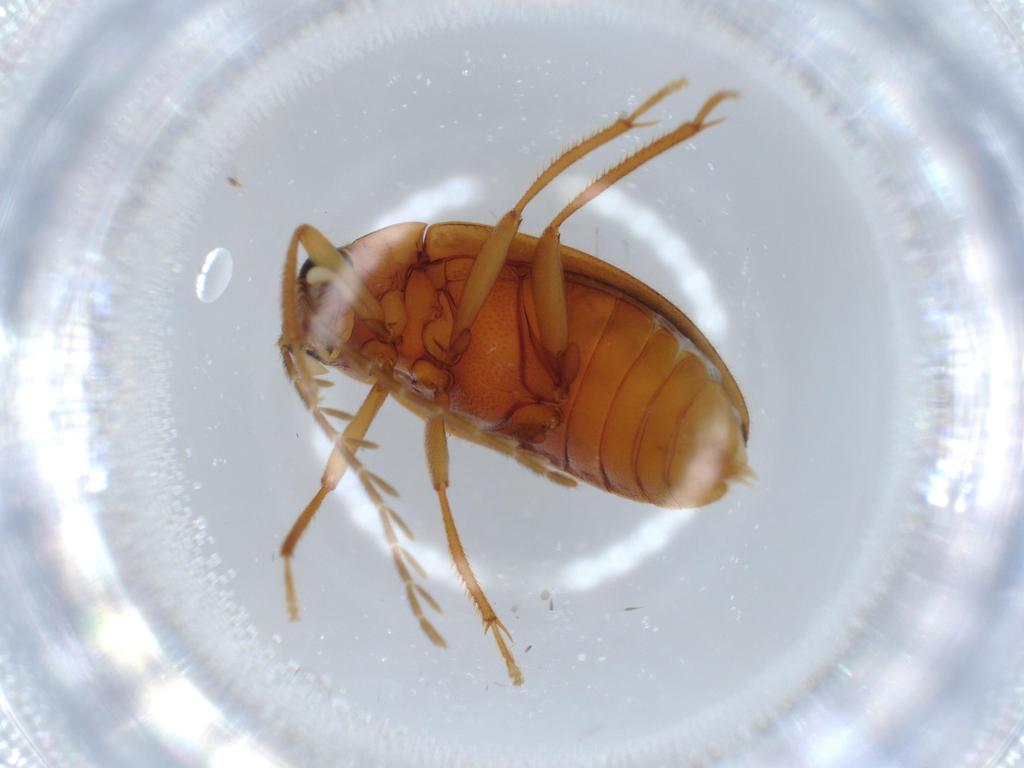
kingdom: Animalia
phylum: Arthropoda
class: Insecta
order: Coleoptera
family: Ptilodactylidae
